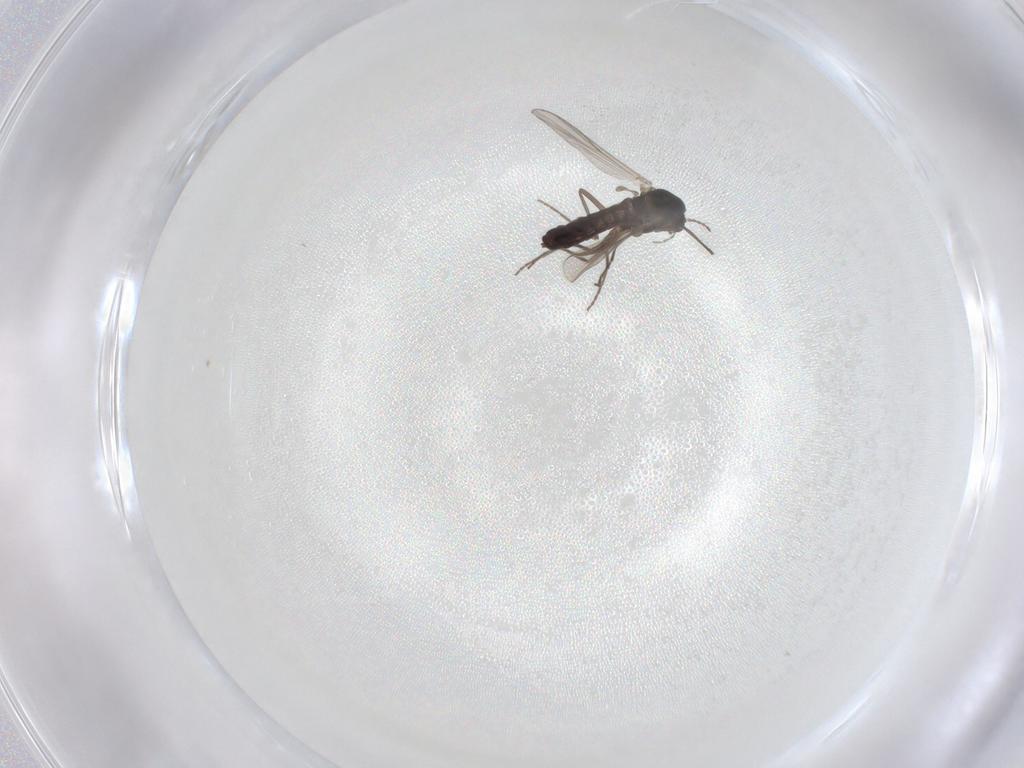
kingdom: Animalia
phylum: Arthropoda
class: Insecta
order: Diptera
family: Chironomidae
